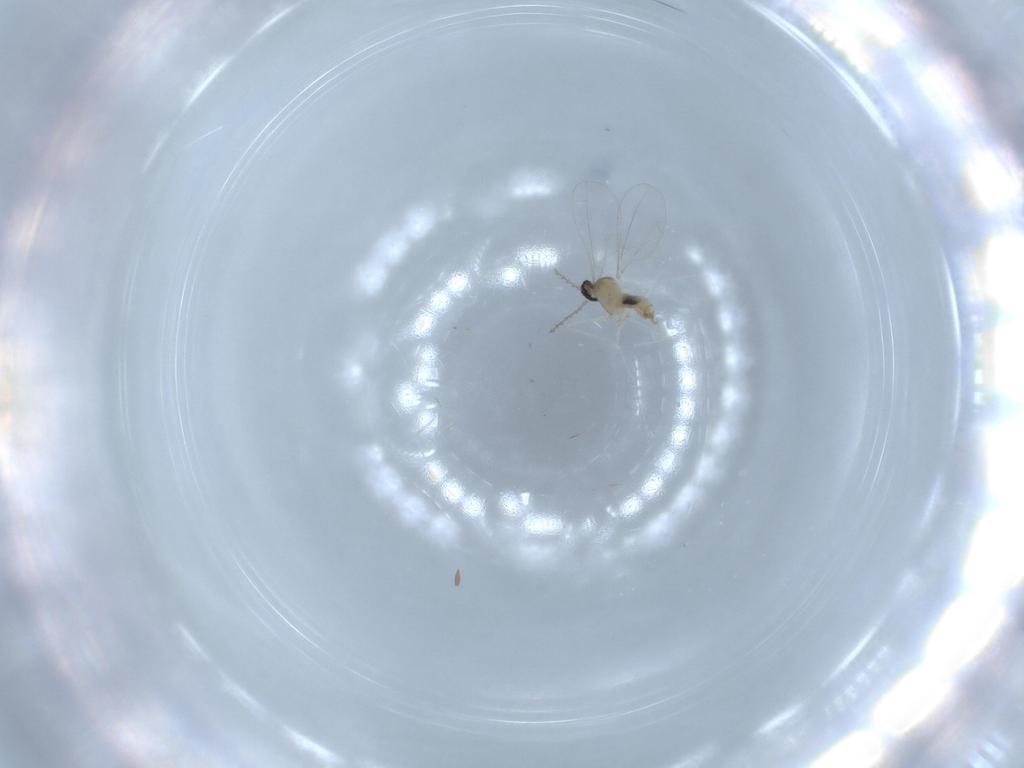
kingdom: Animalia
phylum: Arthropoda
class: Insecta
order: Diptera
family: Cecidomyiidae
